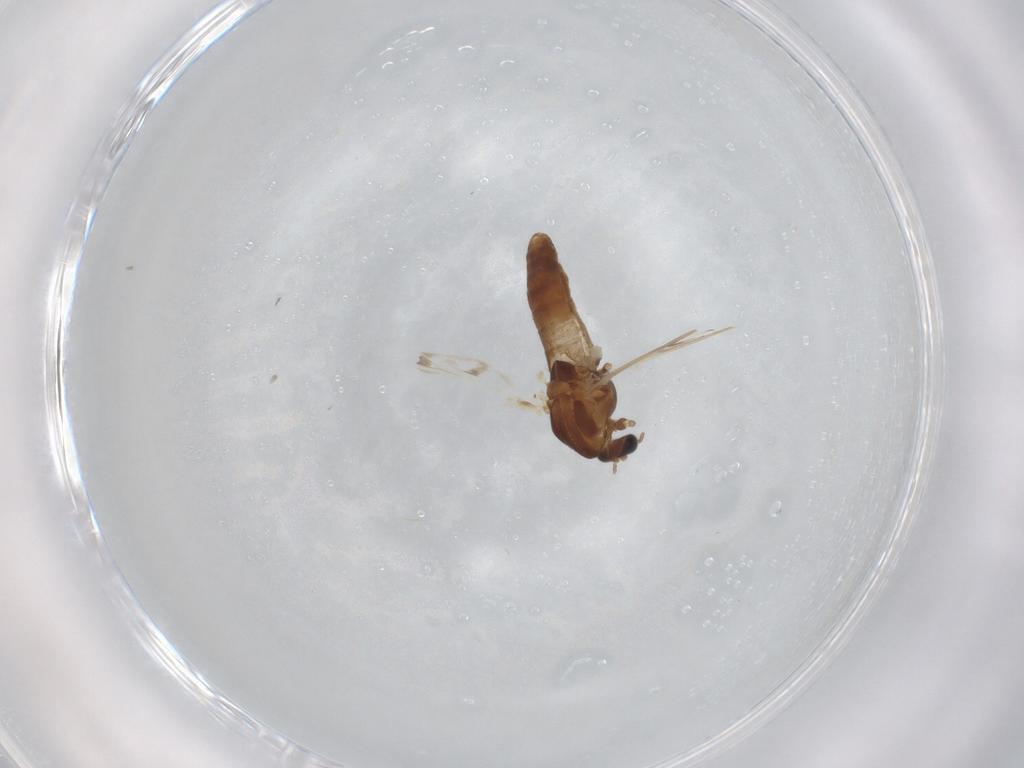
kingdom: Animalia
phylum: Arthropoda
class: Insecta
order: Diptera
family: Chironomidae
